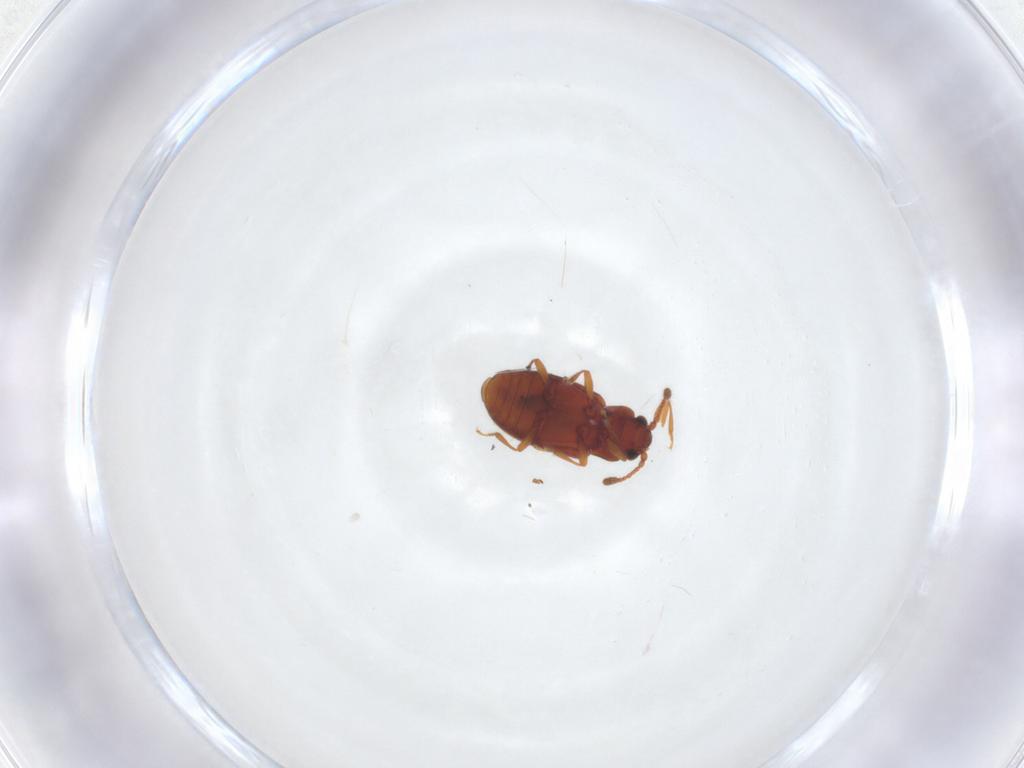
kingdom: Animalia
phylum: Arthropoda
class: Insecta
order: Coleoptera
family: Cryptophagidae
